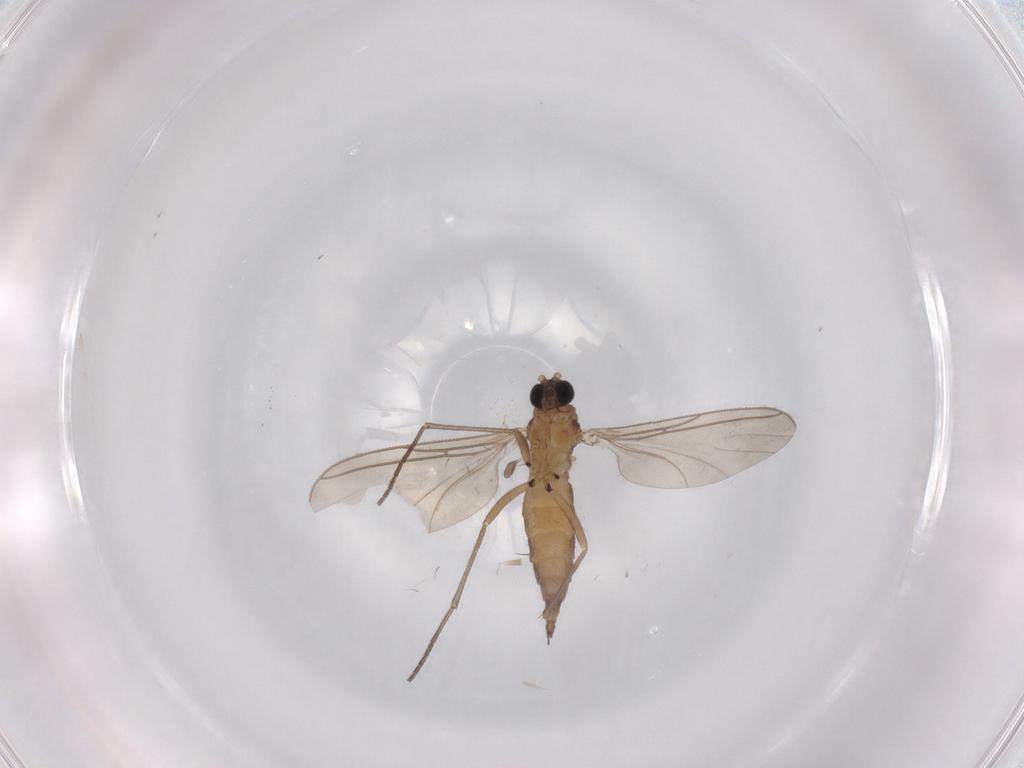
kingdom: Animalia
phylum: Arthropoda
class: Insecta
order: Diptera
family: Sciaridae
